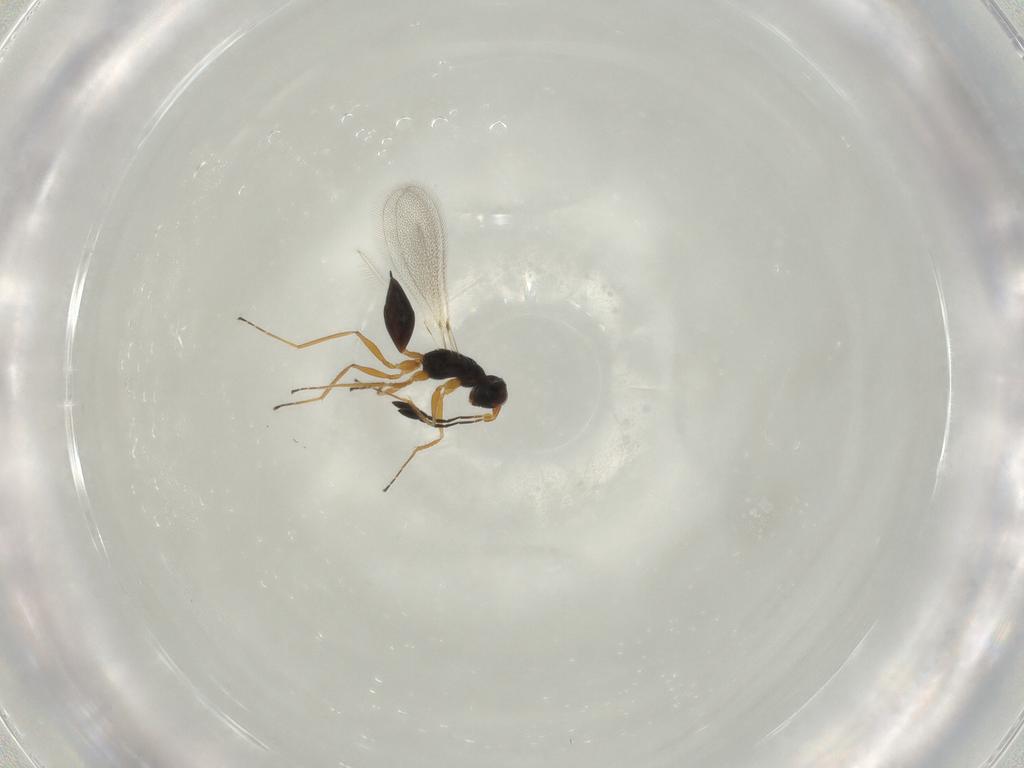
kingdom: Animalia
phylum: Arthropoda
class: Insecta
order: Hymenoptera
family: Mymaridae
